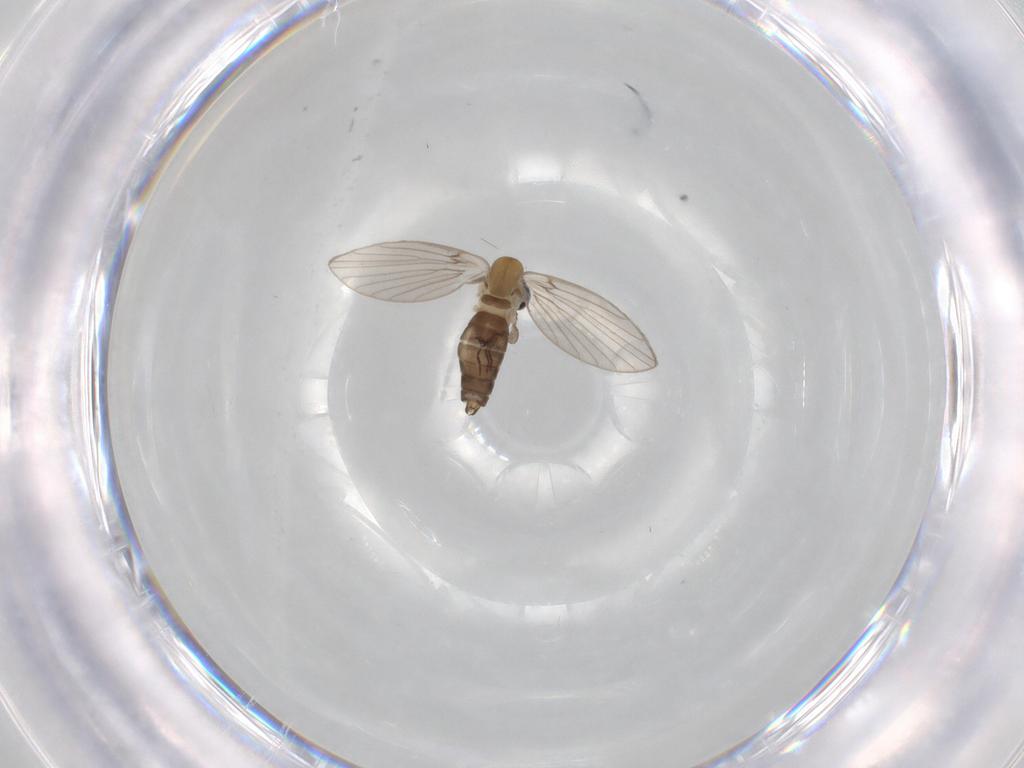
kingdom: Animalia
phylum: Arthropoda
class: Insecta
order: Diptera
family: Psychodidae
